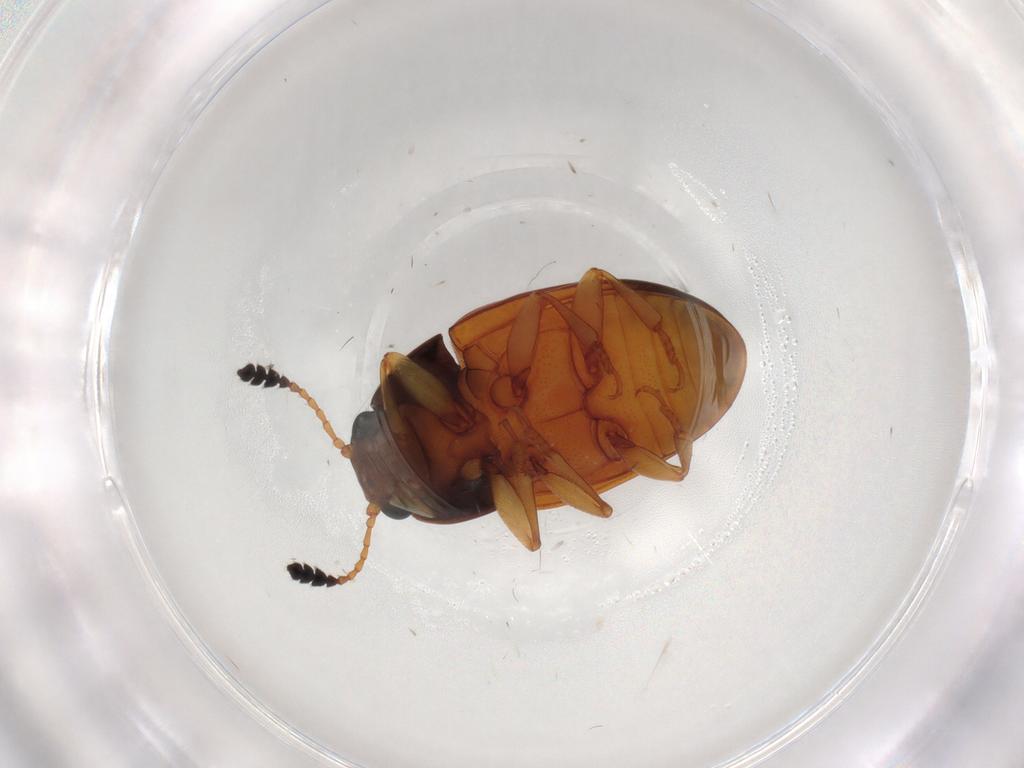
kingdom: Animalia
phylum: Arthropoda
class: Insecta
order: Coleoptera
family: Erotylidae
